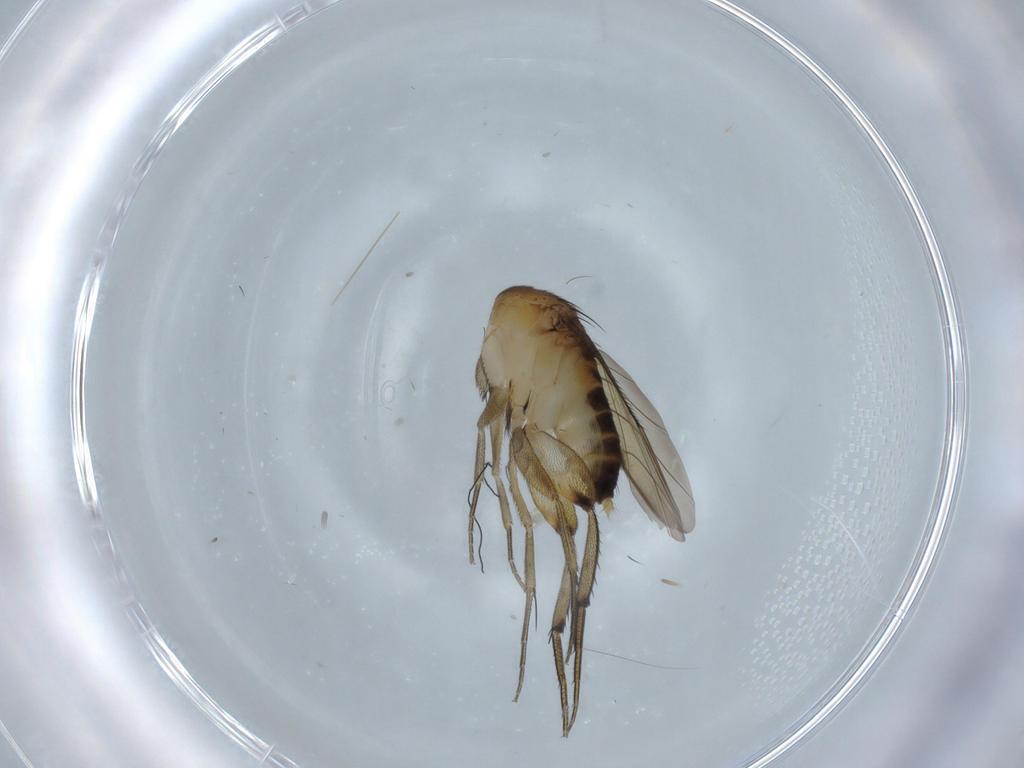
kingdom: Animalia
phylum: Arthropoda
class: Insecta
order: Diptera
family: Phoridae
